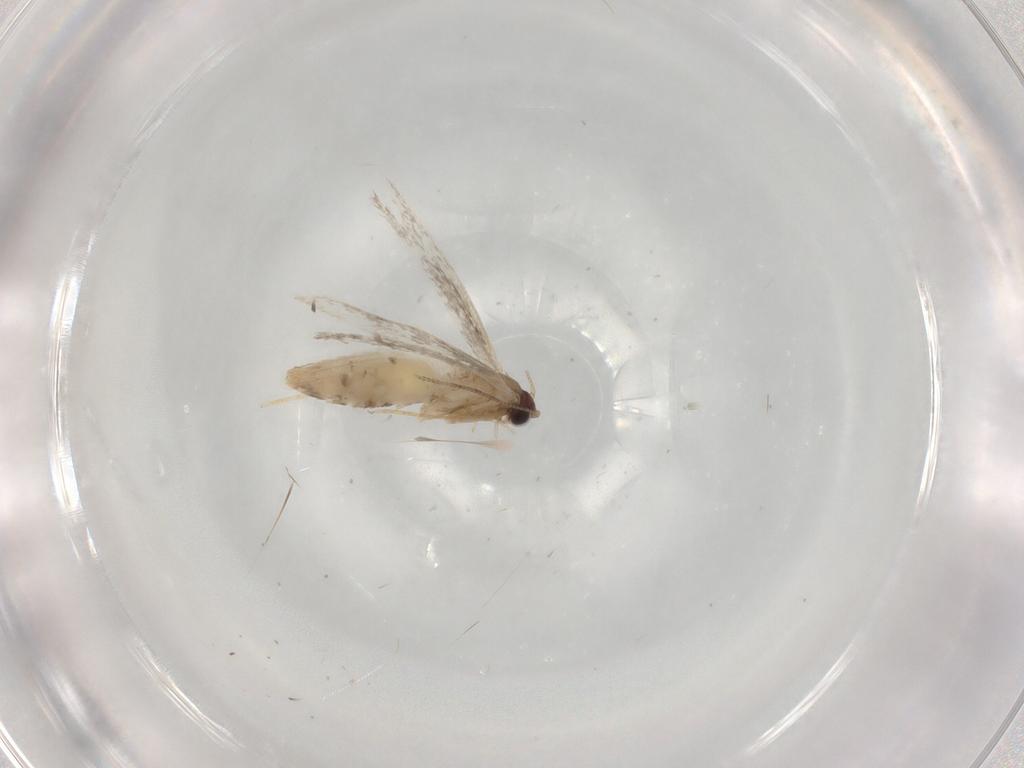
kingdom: Animalia
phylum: Arthropoda
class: Insecta
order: Lepidoptera
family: Tineidae
